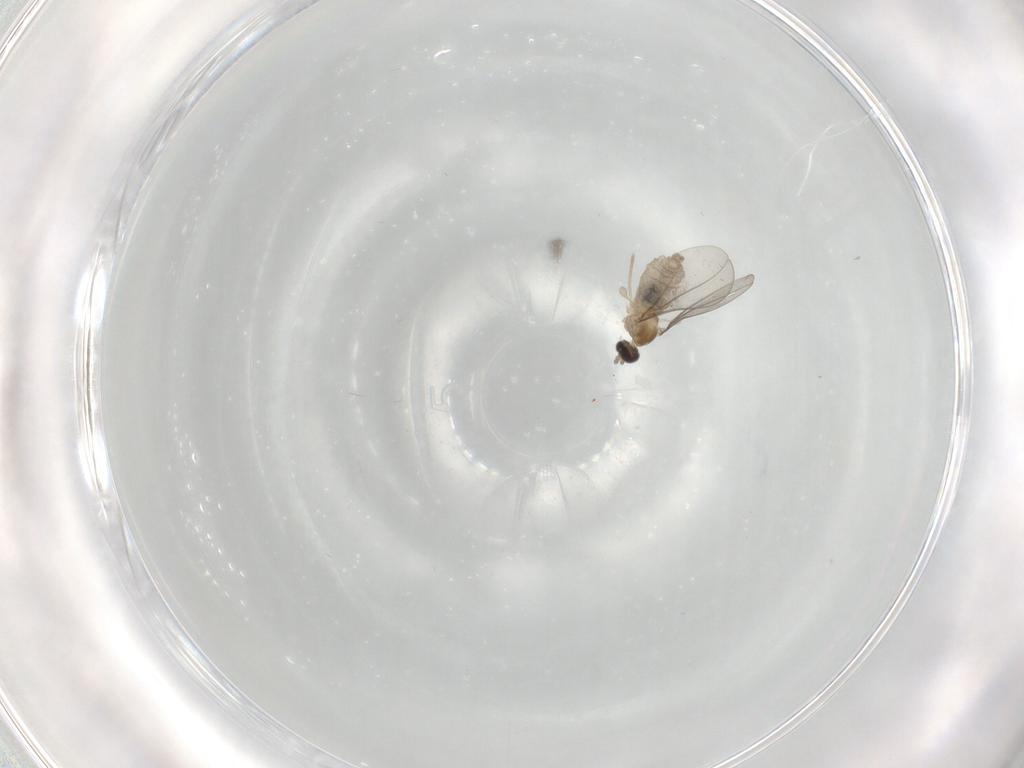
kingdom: Animalia
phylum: Arthropoda
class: Insecta
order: Diptera
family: Cecidomyiidae
